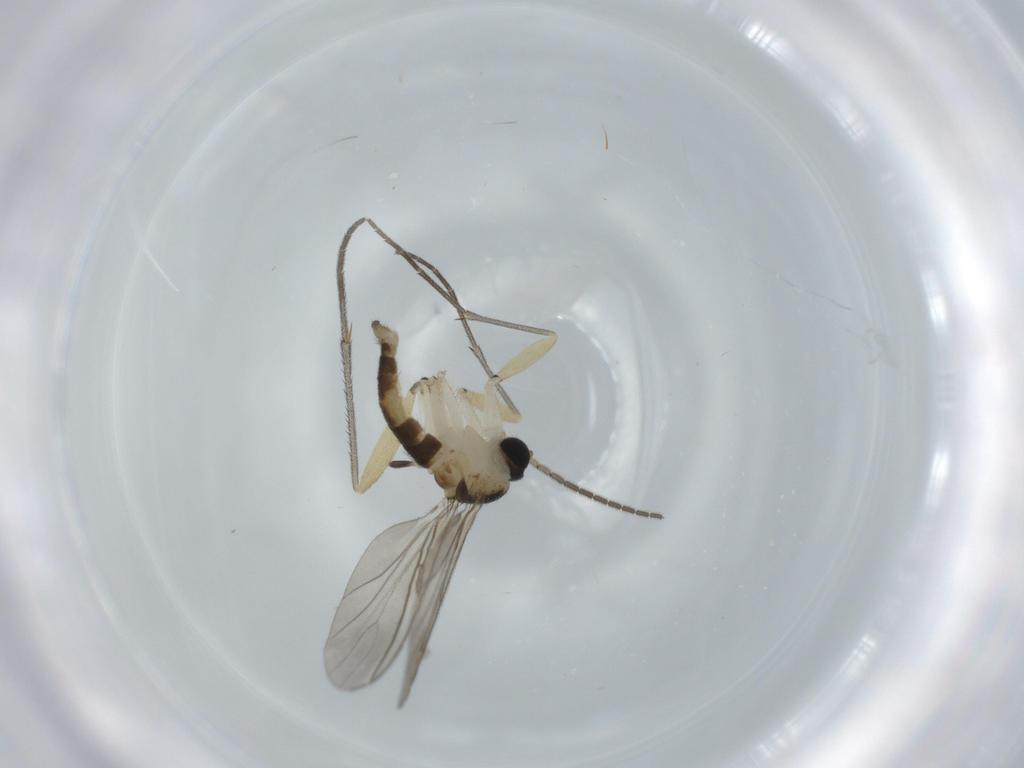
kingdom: Animalia
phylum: Arthropoda
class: Insecta
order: Diptera
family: Sciaridae
